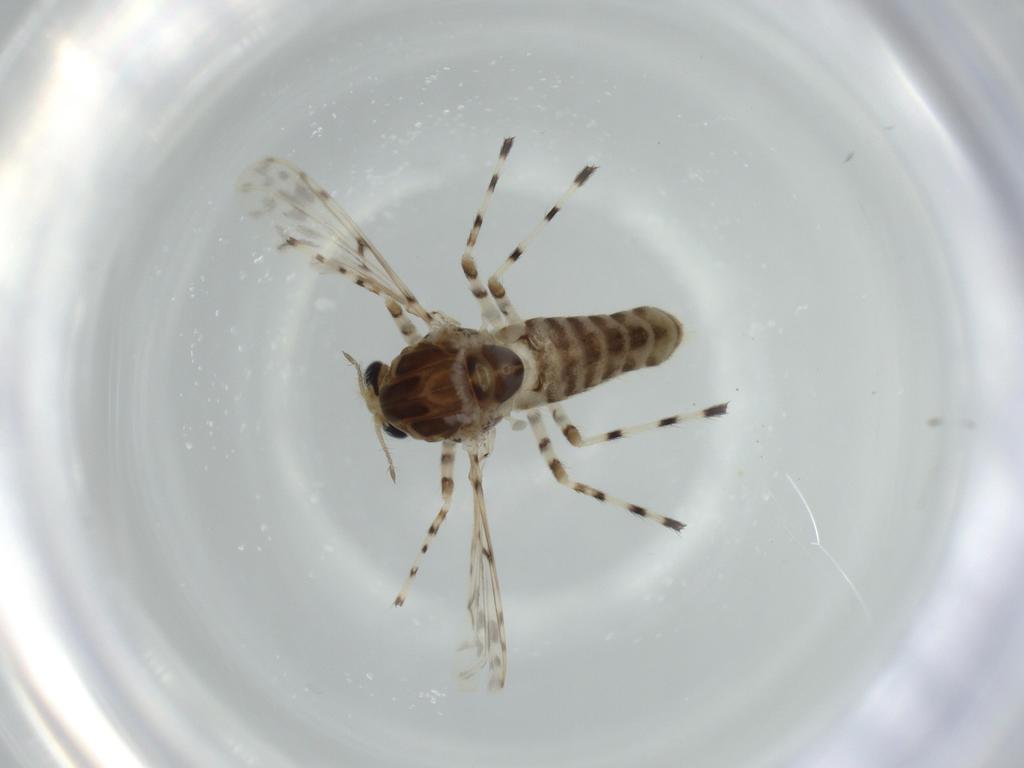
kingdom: Animalia
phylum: Arthropoda
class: Insecta
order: Diptera
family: Chironomidae
